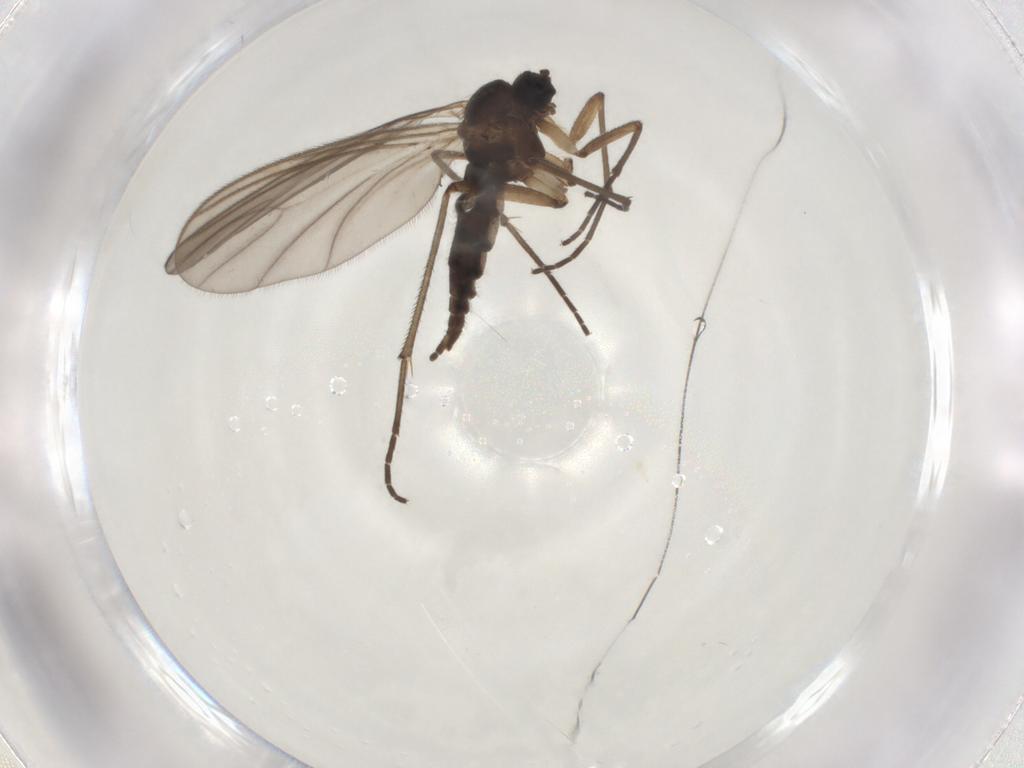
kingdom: Animalia
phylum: Arthropoda
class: Insecta
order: Diptera
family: Sciaridae
